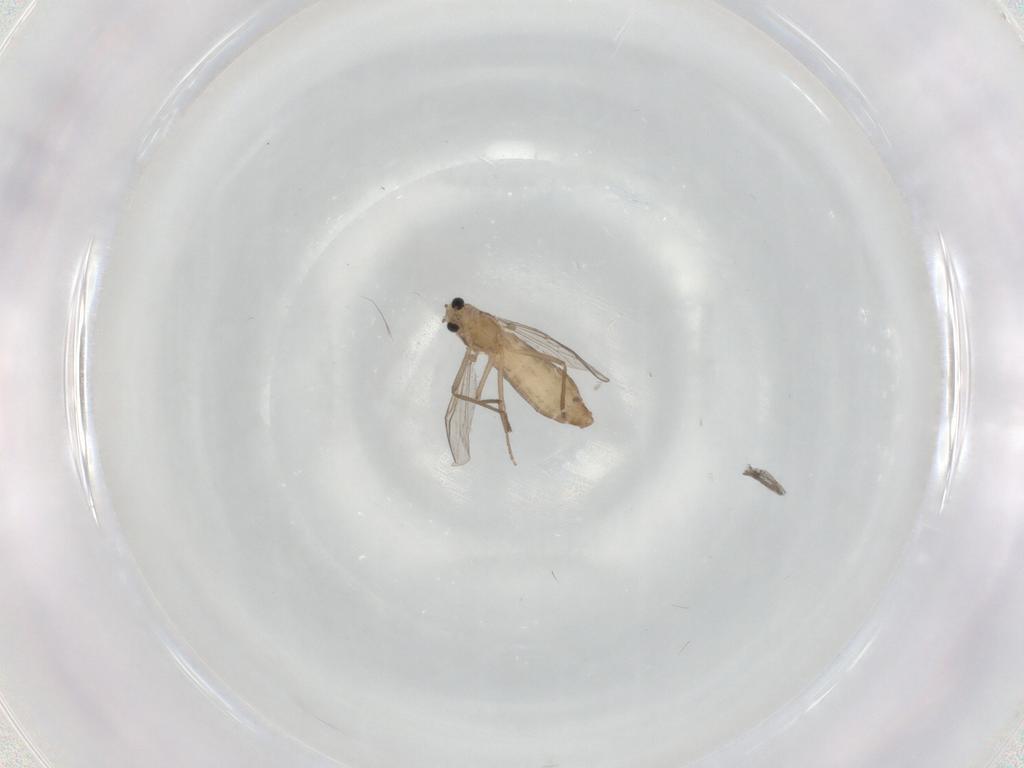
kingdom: Animalia
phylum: Arthropoda
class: Insecta
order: Diptera
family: Chironomidae
